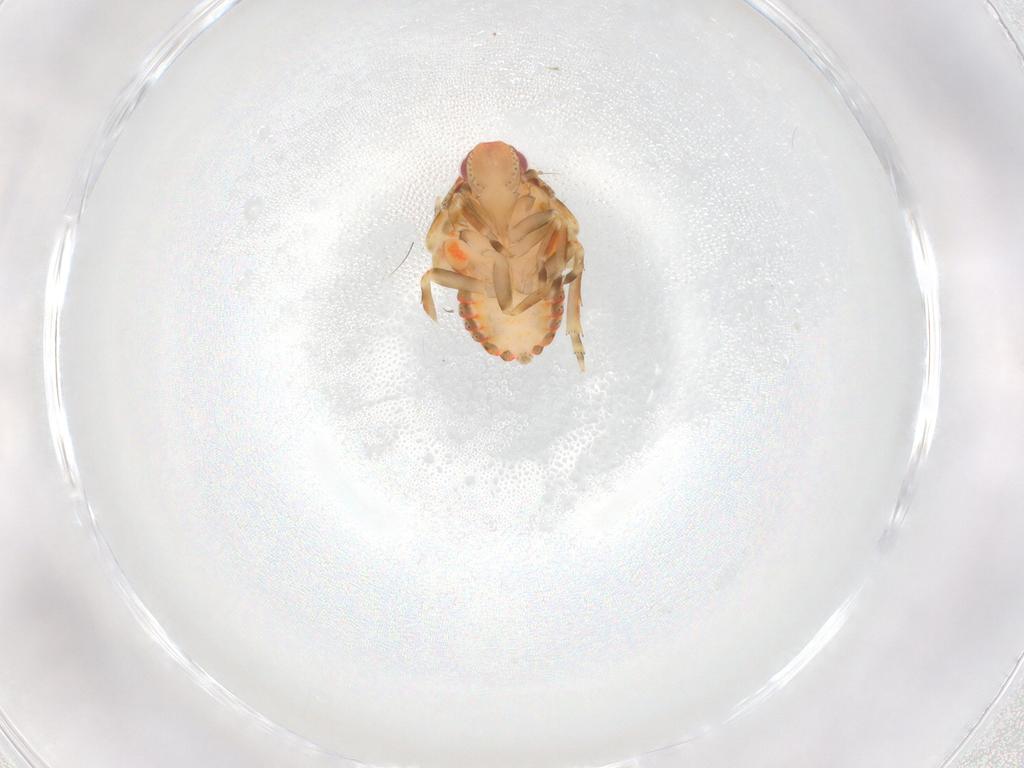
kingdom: Animalia
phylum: Arthropoda
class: Insecta
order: Hemiptera
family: Flatidae
